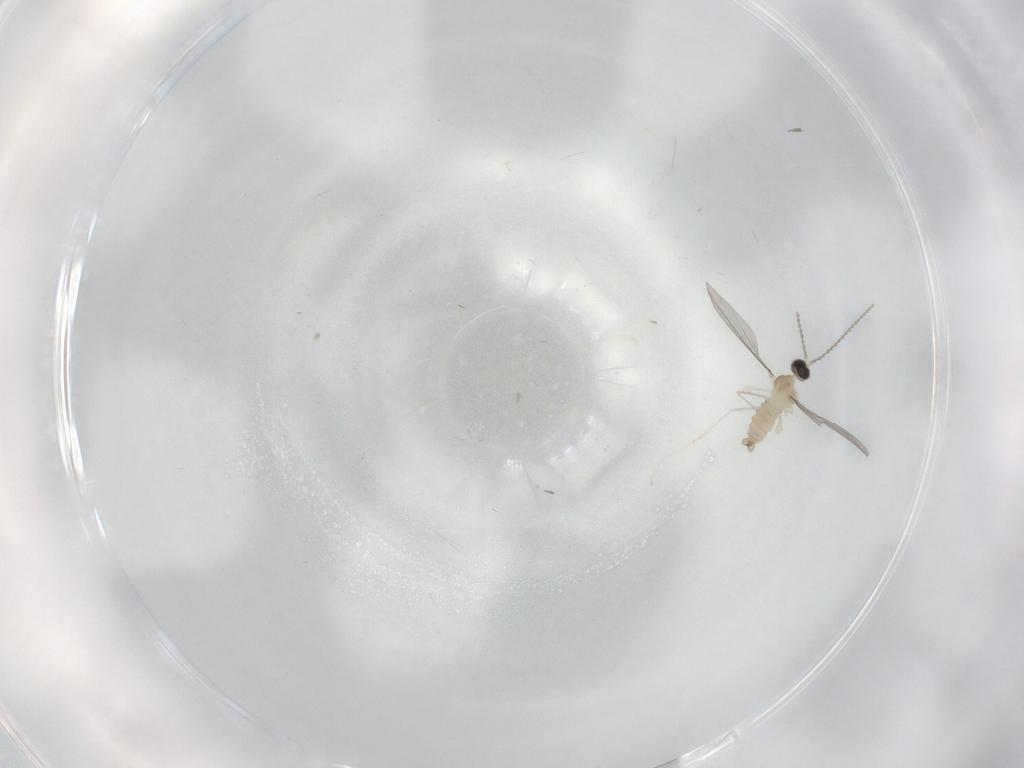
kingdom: Animalia
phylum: Arthropoda
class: Insecta
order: Diptera
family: Cecidomyiidae
